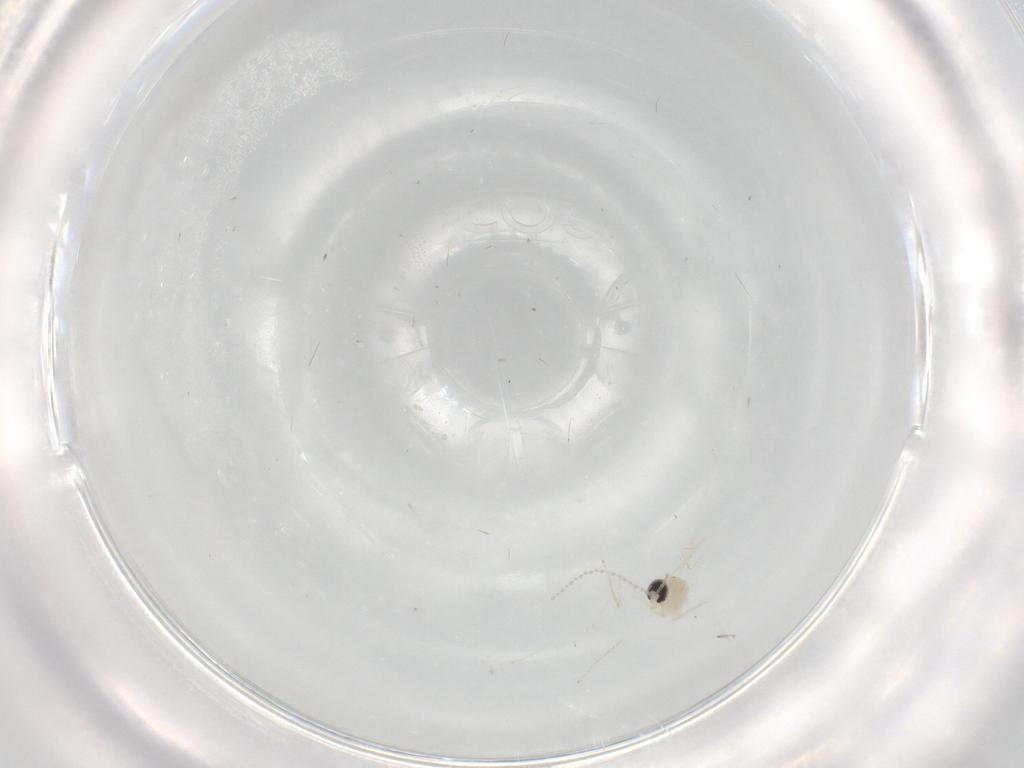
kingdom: Animalia
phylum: Arthropoda
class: Insecta
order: Diptera
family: Cecidomyiidae
